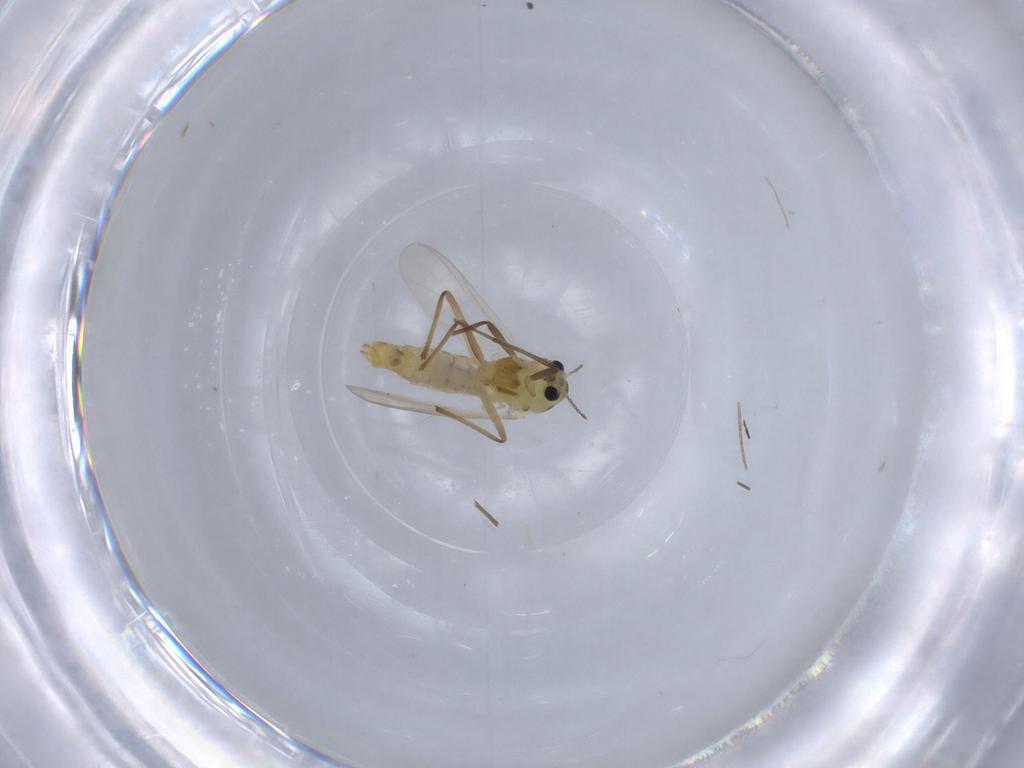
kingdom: Animalia
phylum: Arthropoda
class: Insecta
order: Diptera
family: Chironomidae
